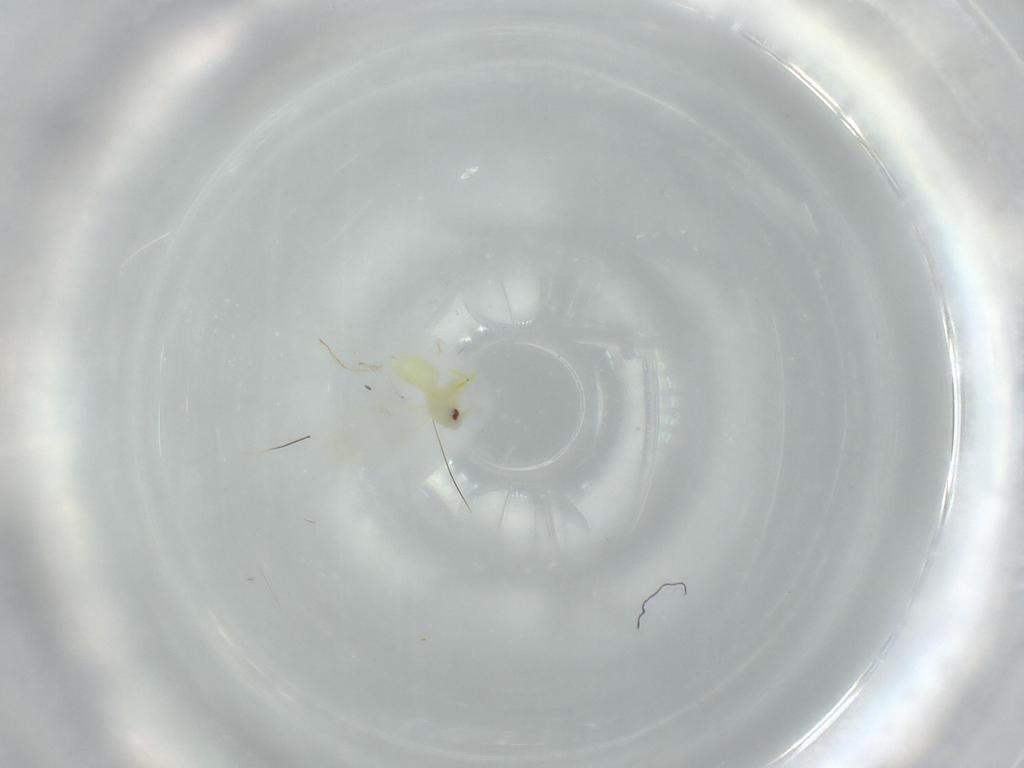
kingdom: Animalia
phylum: Arthropoda
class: Insecta
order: Hemiptera
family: Aleyrodidae
